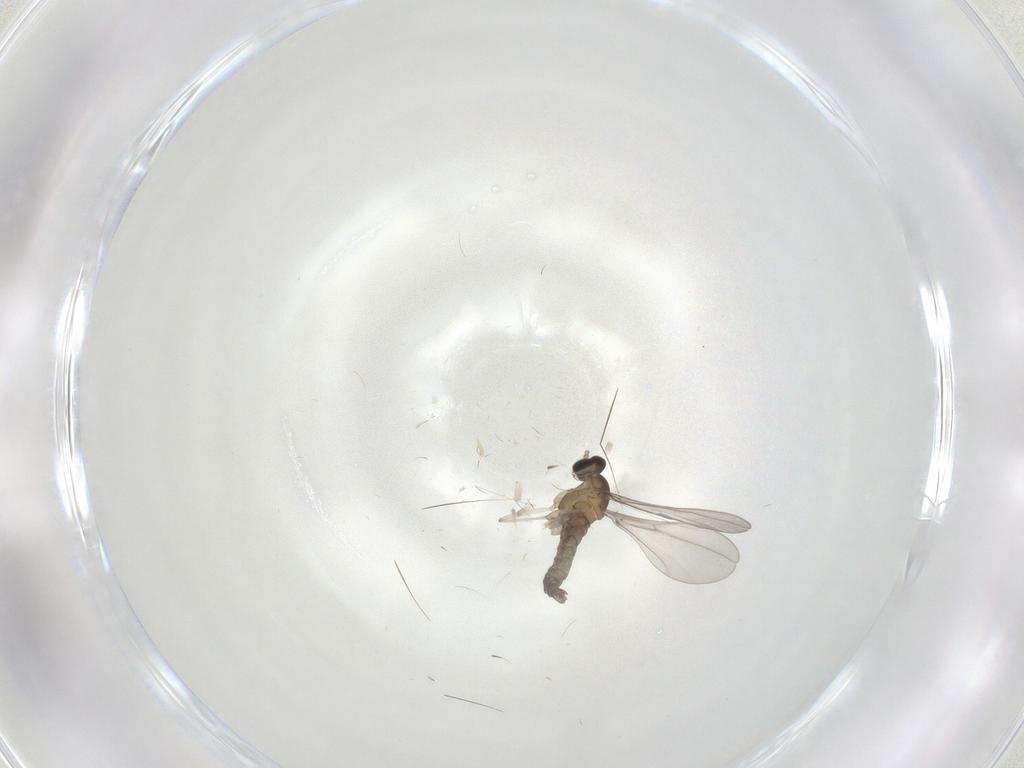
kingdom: Animalia
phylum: Arthropoda
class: Insecta
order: Diptera
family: Cecidomyiidae
